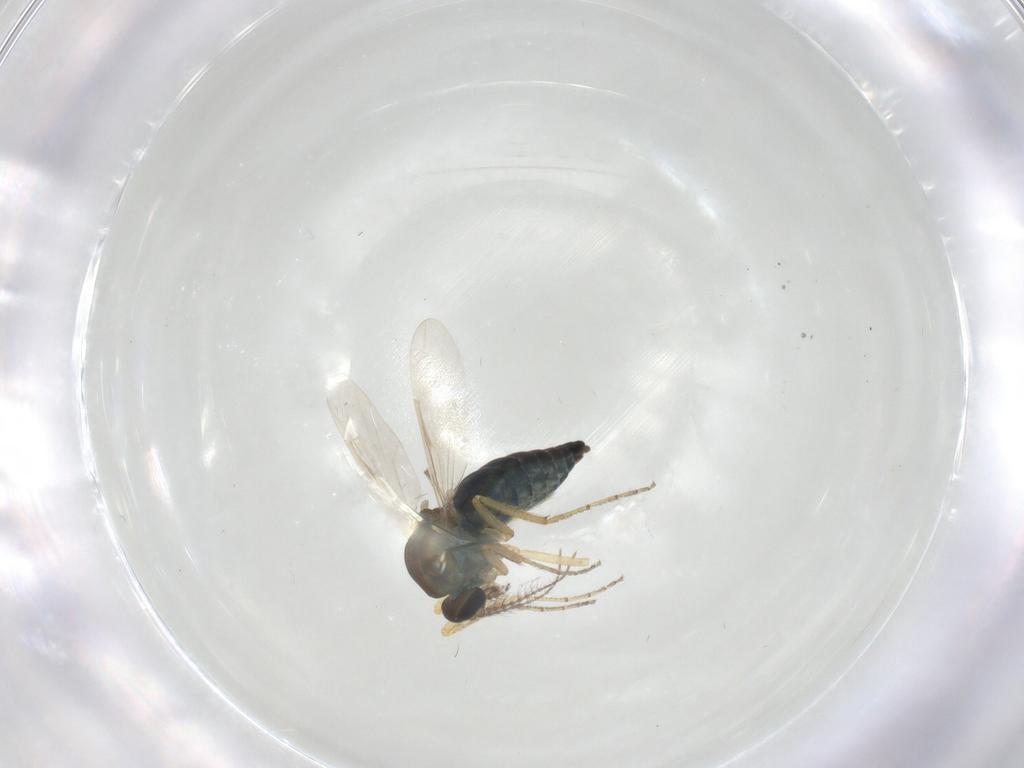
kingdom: Animalia
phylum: Arthropoda
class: Insecta
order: Diptera
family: Ceratopogonidae
